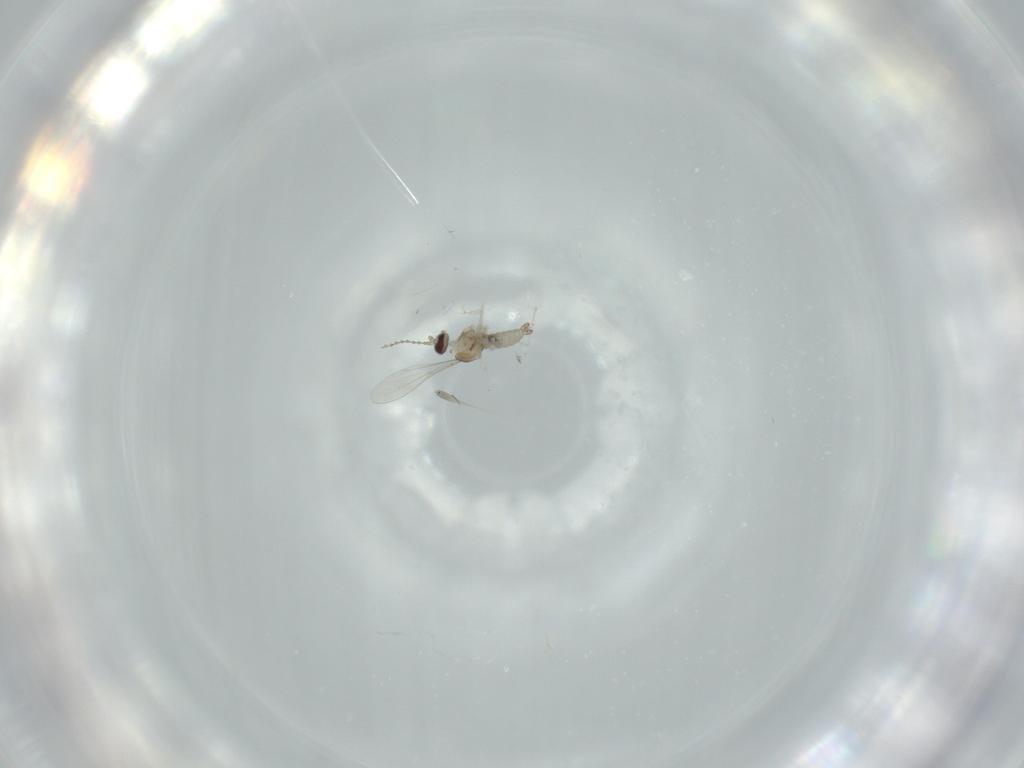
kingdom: Animalia
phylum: Arthropoda
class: Insecta
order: Diptera
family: Cecidomyiidae
